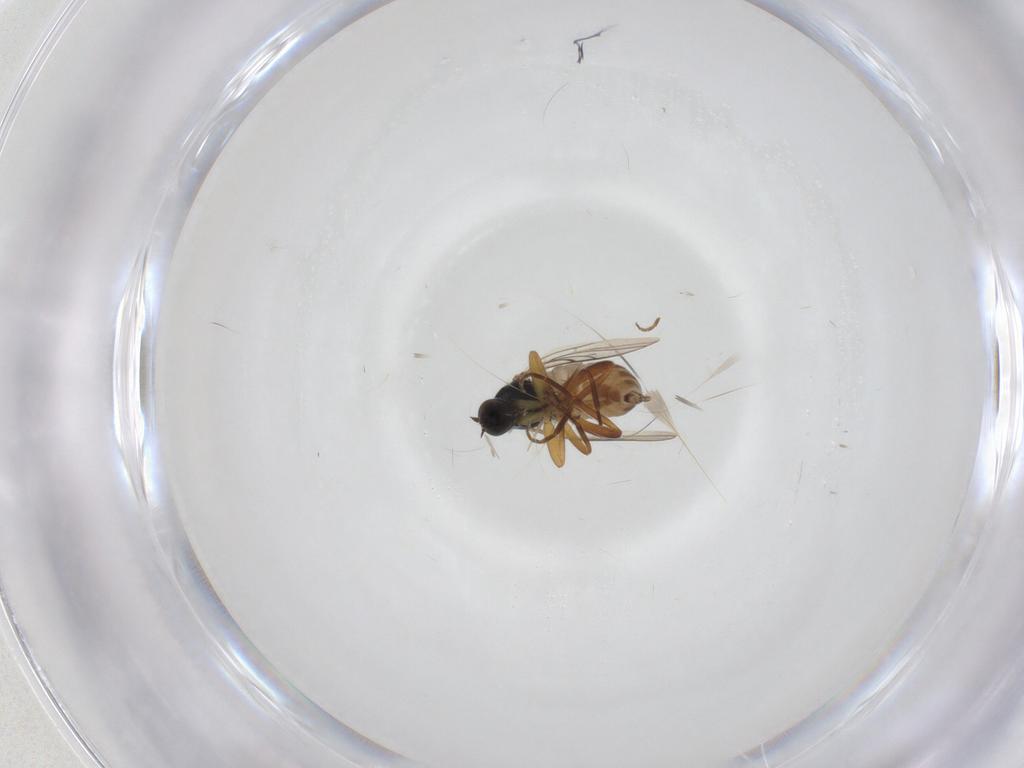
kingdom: Animalia
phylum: Arthropoda
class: Insecta
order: Diptera
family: Hybotidae
